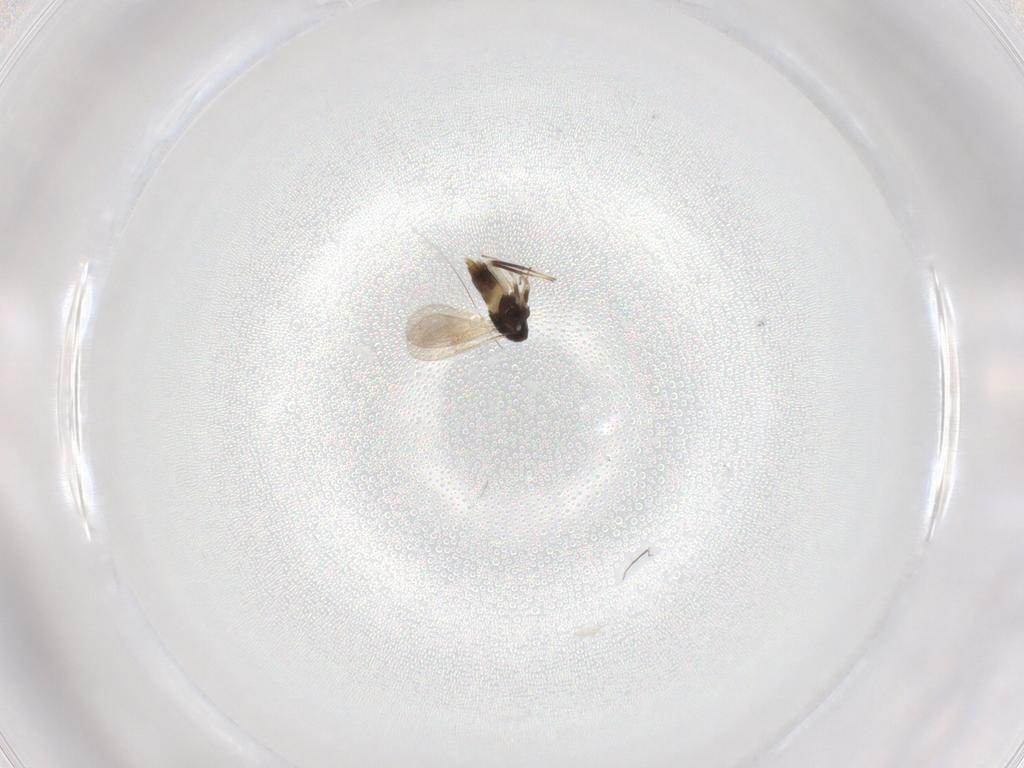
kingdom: Animalia
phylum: Arthropoda
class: Insecta
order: Hymenoptera
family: Aphelinidae
